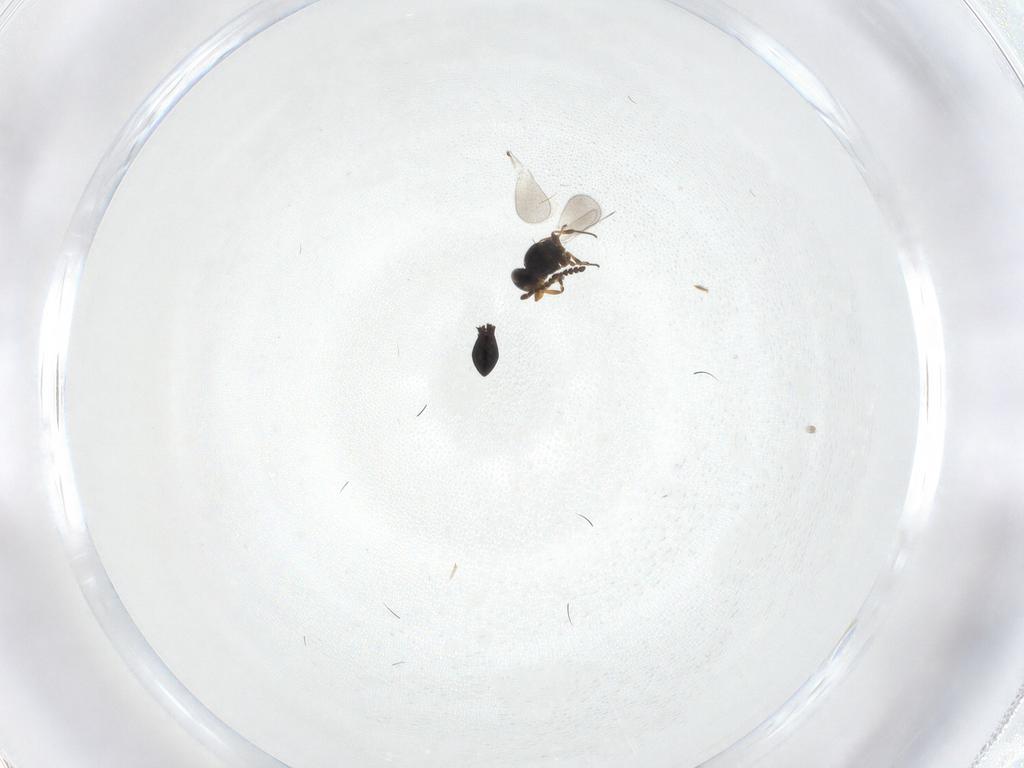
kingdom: Animalia
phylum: Arthropoda
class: Insecta
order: Hymenoptera
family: Platygastridae
